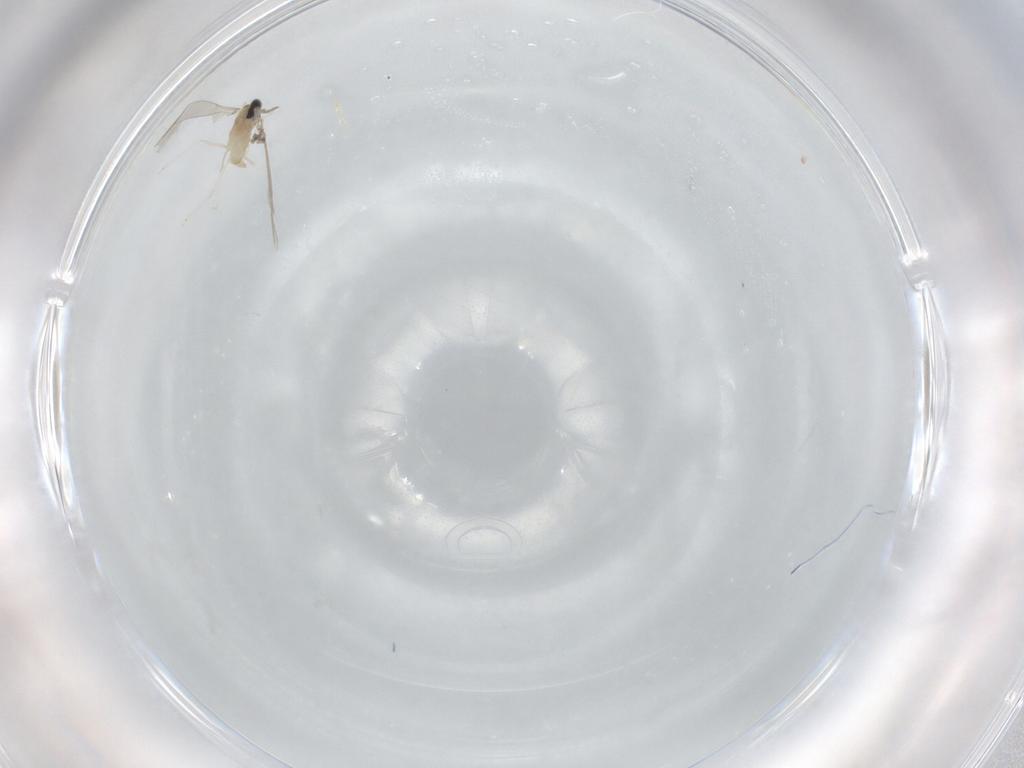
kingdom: Animalia
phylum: Arthropoda
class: Insecta
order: Diptera
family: Cecidomyiidae
